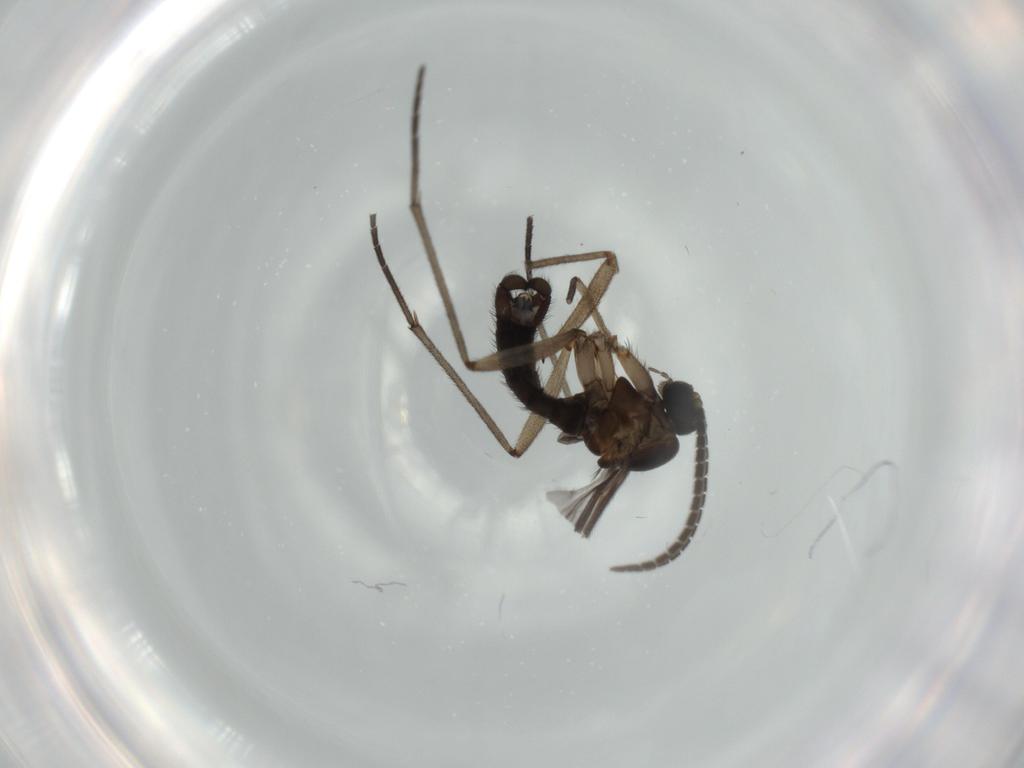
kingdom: Animalia
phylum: Arthropoda
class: Insecta
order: Diptera
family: Sciaridae
